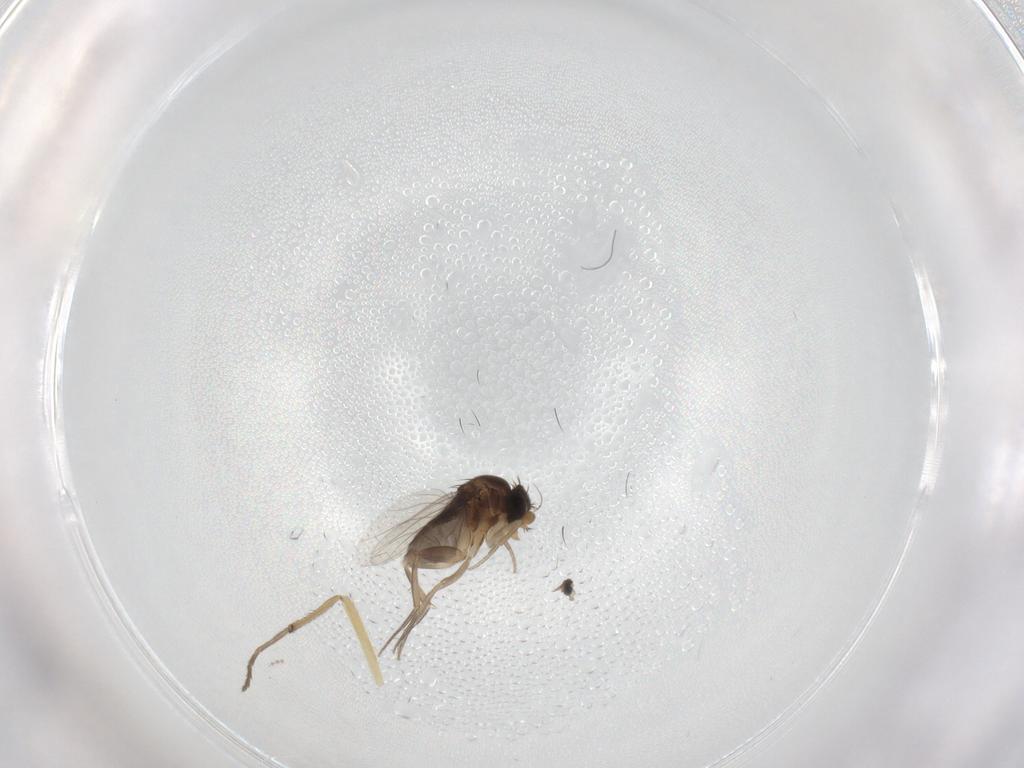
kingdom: Animalia
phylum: Arthropoda
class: Insecta
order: Diptera
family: Phoridae
